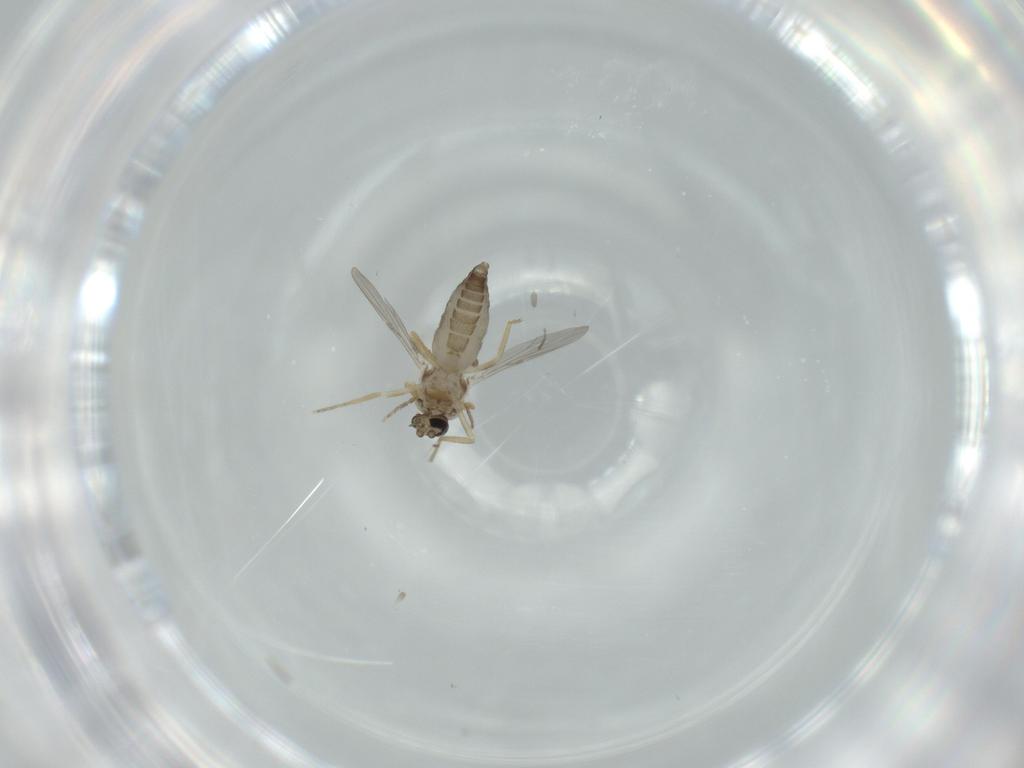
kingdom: Animalia
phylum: Arthropoda
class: Insecta
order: Diptera
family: Ceratopogonidae
